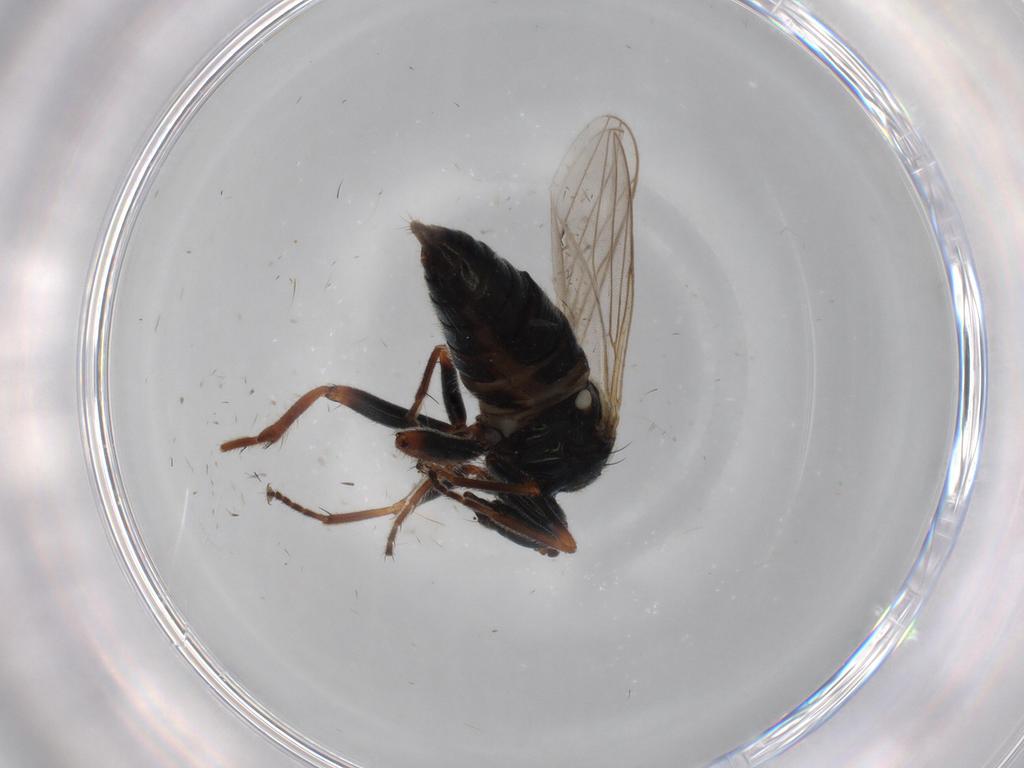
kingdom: Animalia
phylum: Arthropoda
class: Insecta
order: Diptera
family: Hybotidae
